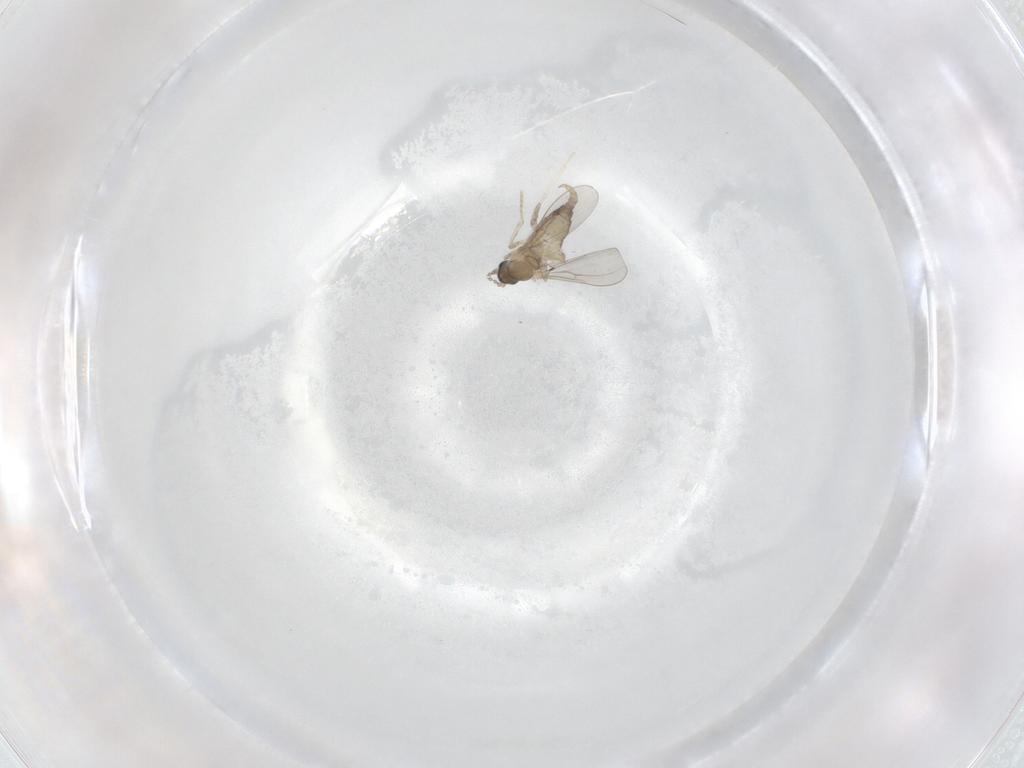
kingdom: Animalia
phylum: Arthropoda
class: Insecta
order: Diptera
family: Cecidomyiidae
